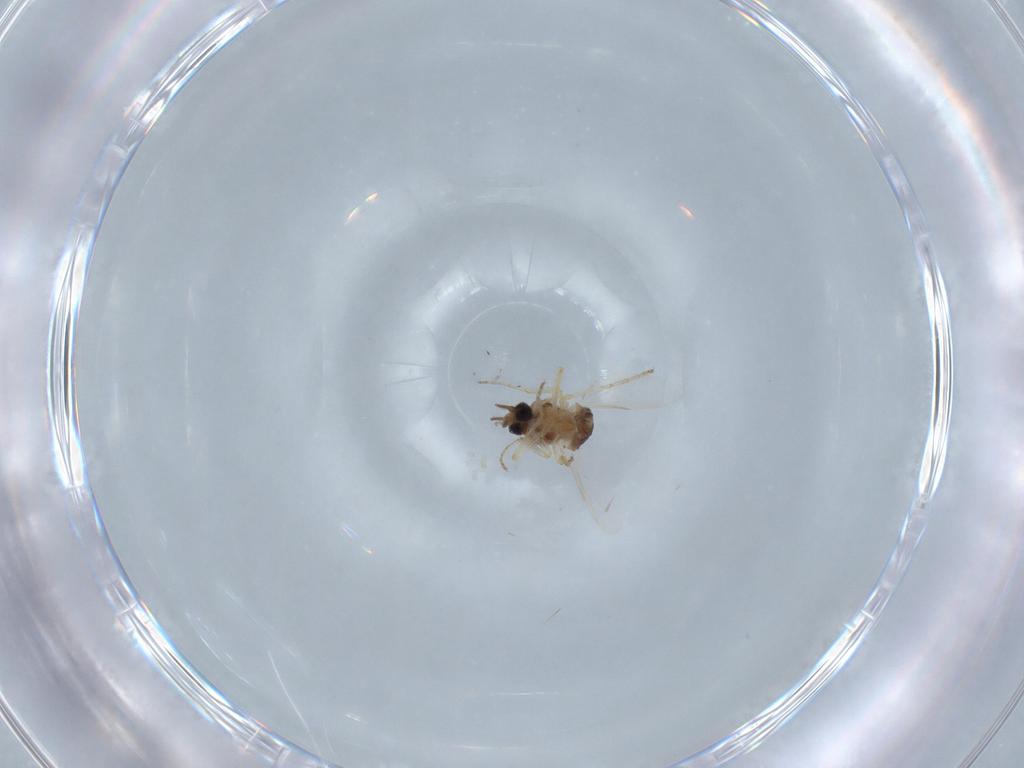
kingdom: Animalia
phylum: Arthropoda
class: Insecta
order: Diptera
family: Ceratopogonidae
